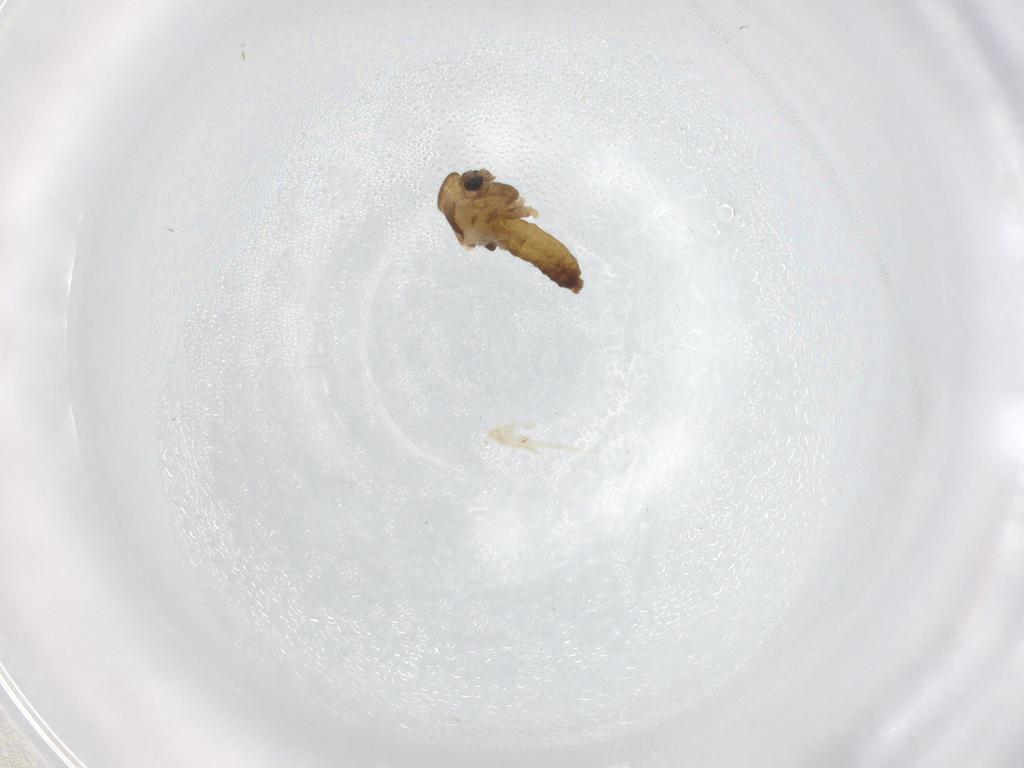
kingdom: Animalia
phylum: Arthropoda
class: Insecta
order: Diptera
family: Chironomidae
